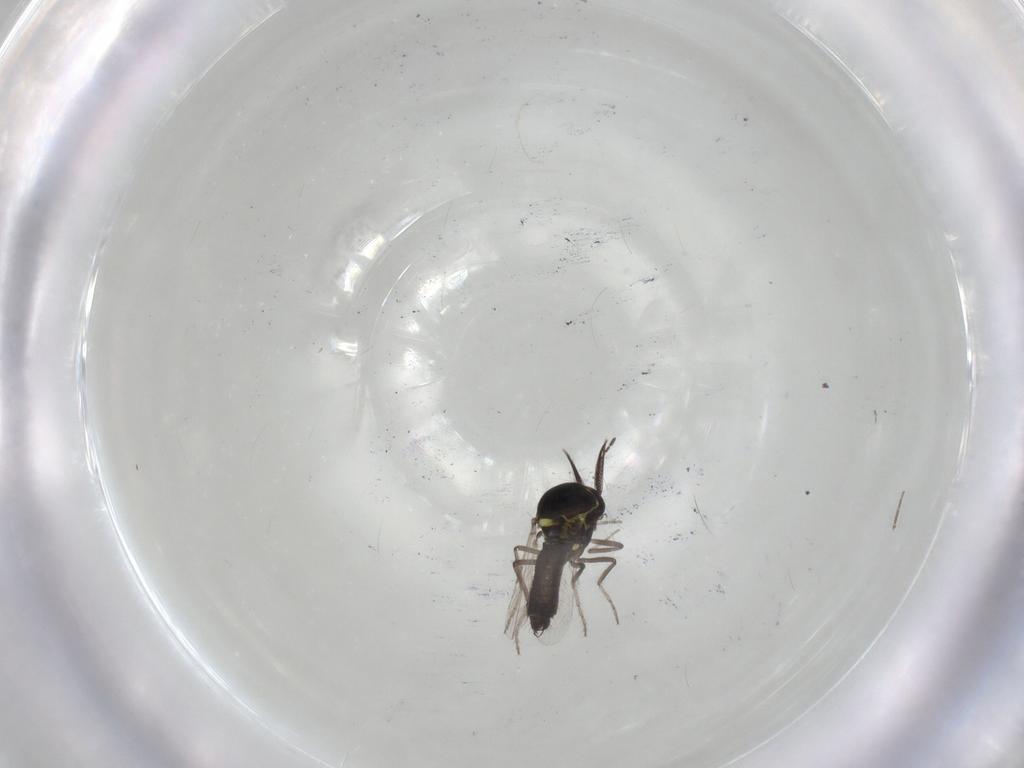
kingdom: Animalia
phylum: Arthropoda
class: Insecta
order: Diptera
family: Ceratopogonidae
